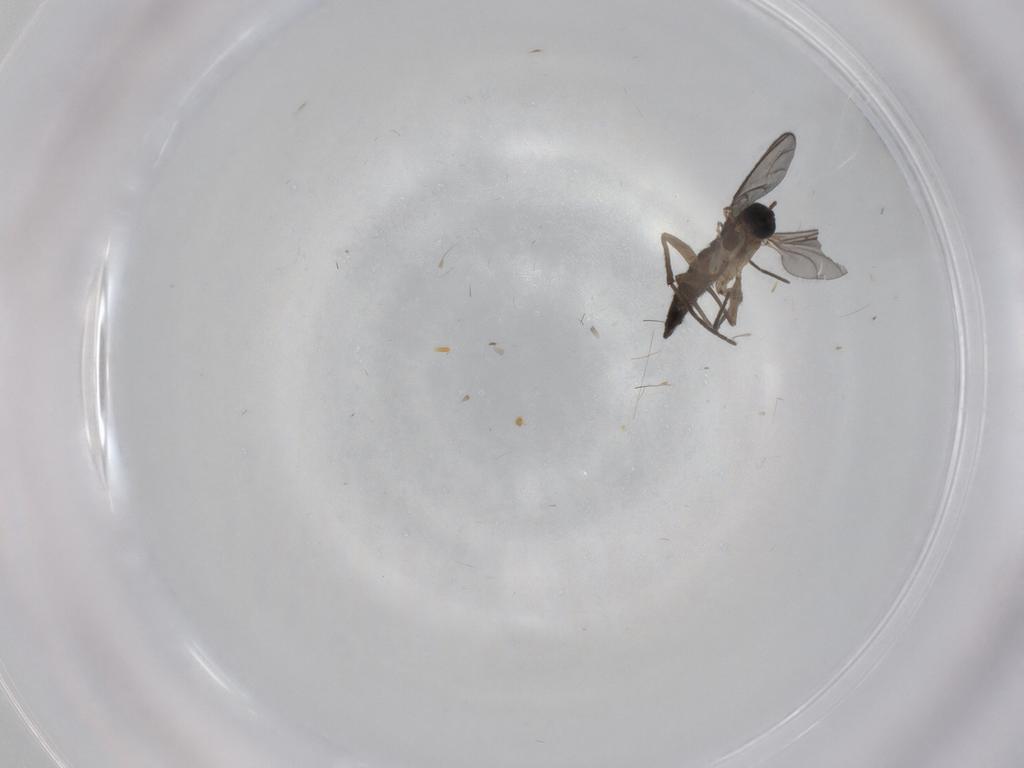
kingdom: Animalia
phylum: Arthropoda
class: Insecta
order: Diptera
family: Sciaridae
